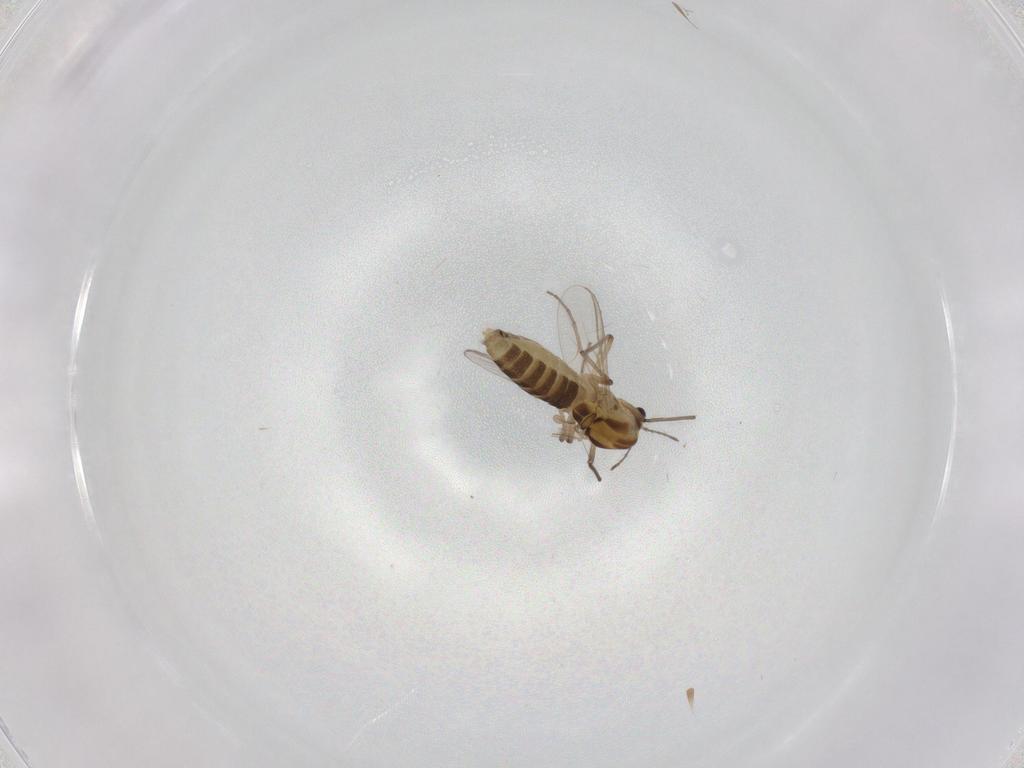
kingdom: Animalia
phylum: Arthropoda
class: Insecta
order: Diptera
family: Chironomidae
